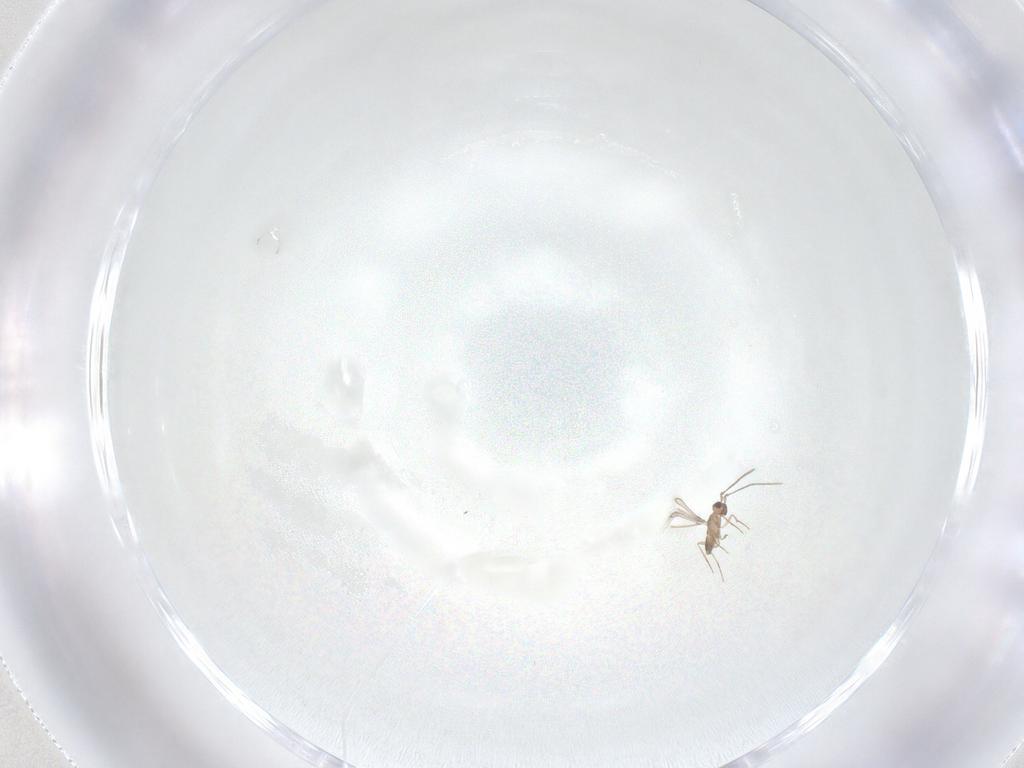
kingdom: Animalia
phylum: Arthropoda
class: Insecta
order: Hymenoptera
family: Mymaridae
